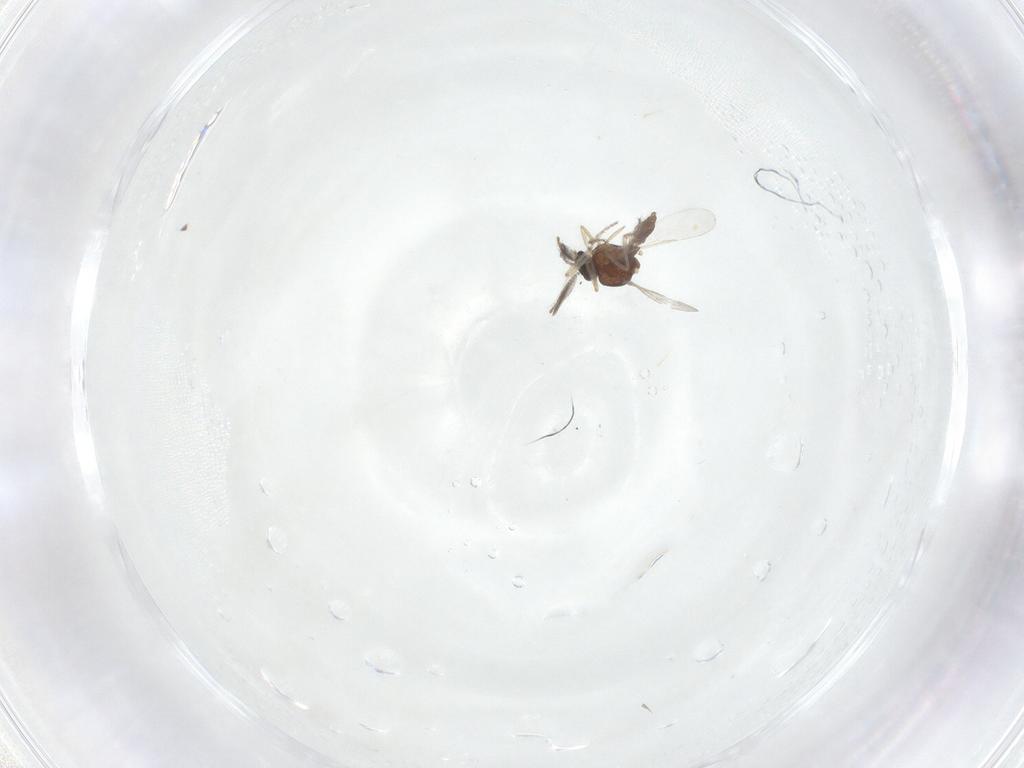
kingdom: Animalia
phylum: Arthropoda
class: Insecta
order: Diptera
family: Ceratopogonidae
